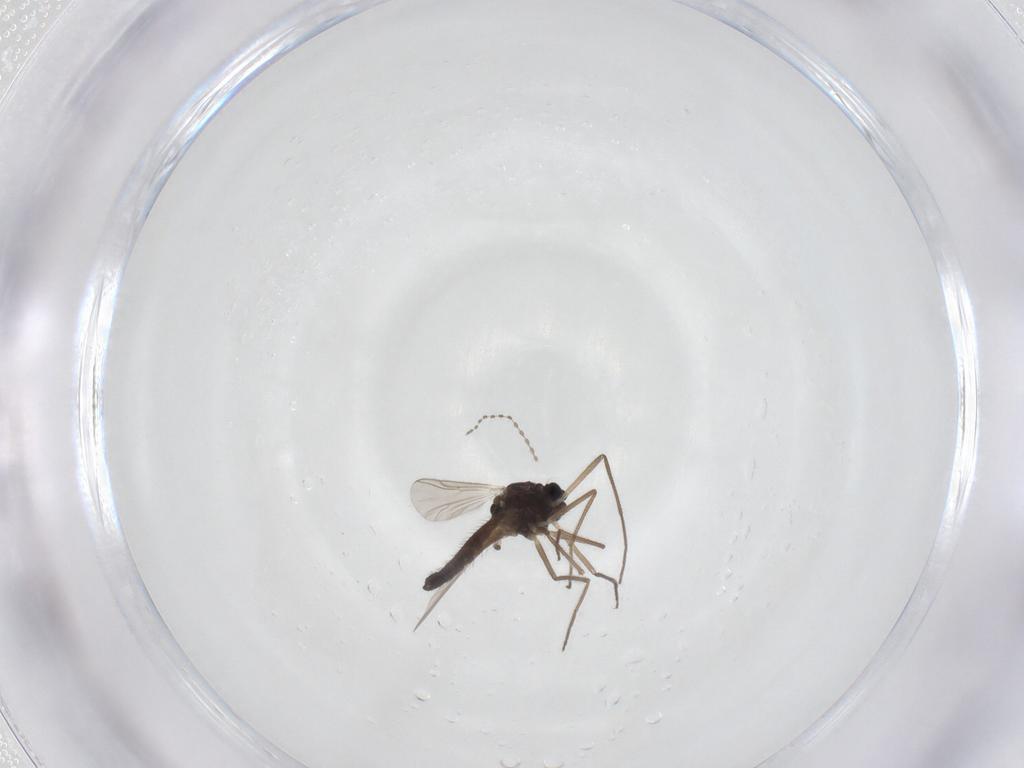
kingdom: Animalia
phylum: Arthropoda
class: Insecta
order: Diptera
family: Chironomidae
